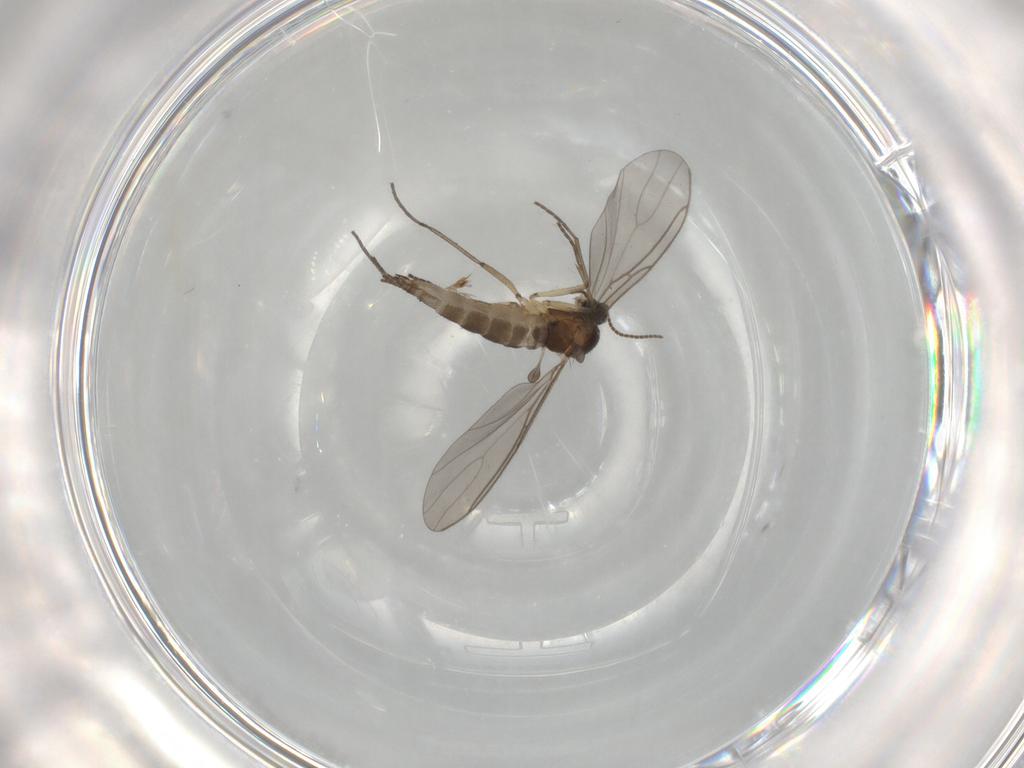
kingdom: Animalia
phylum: Arthropoda
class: Insecta
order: Diptera
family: Sciaridae
